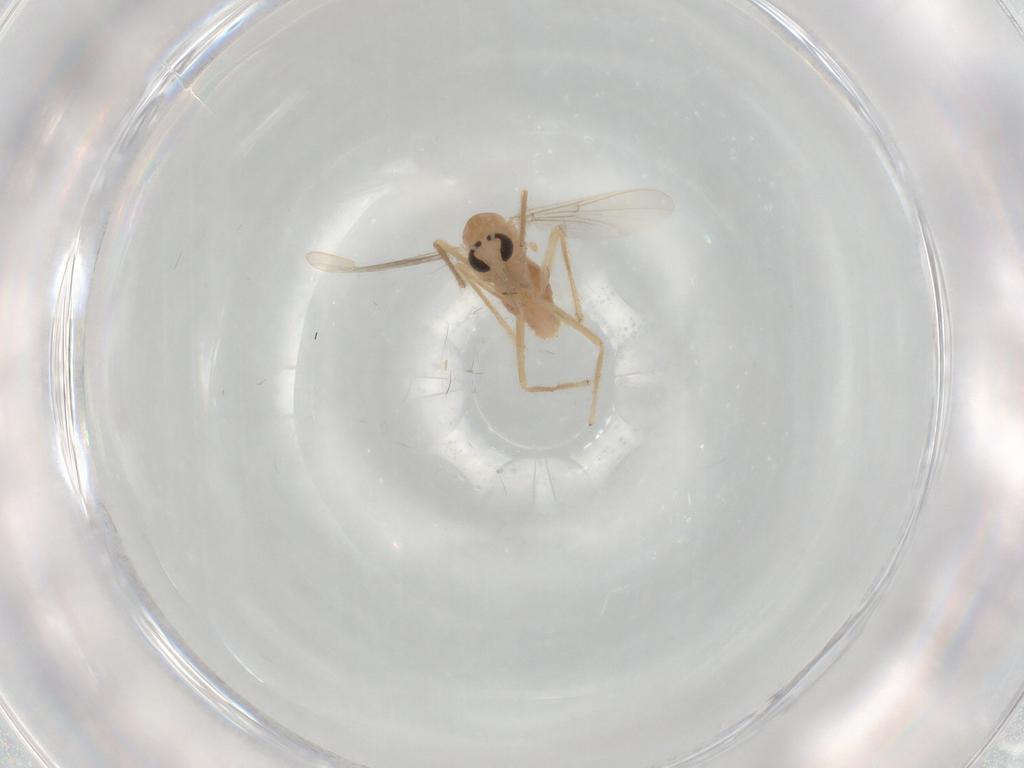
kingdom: Animalia
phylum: Arthropoda
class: Insecta
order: Diptera
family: Chironomidae
